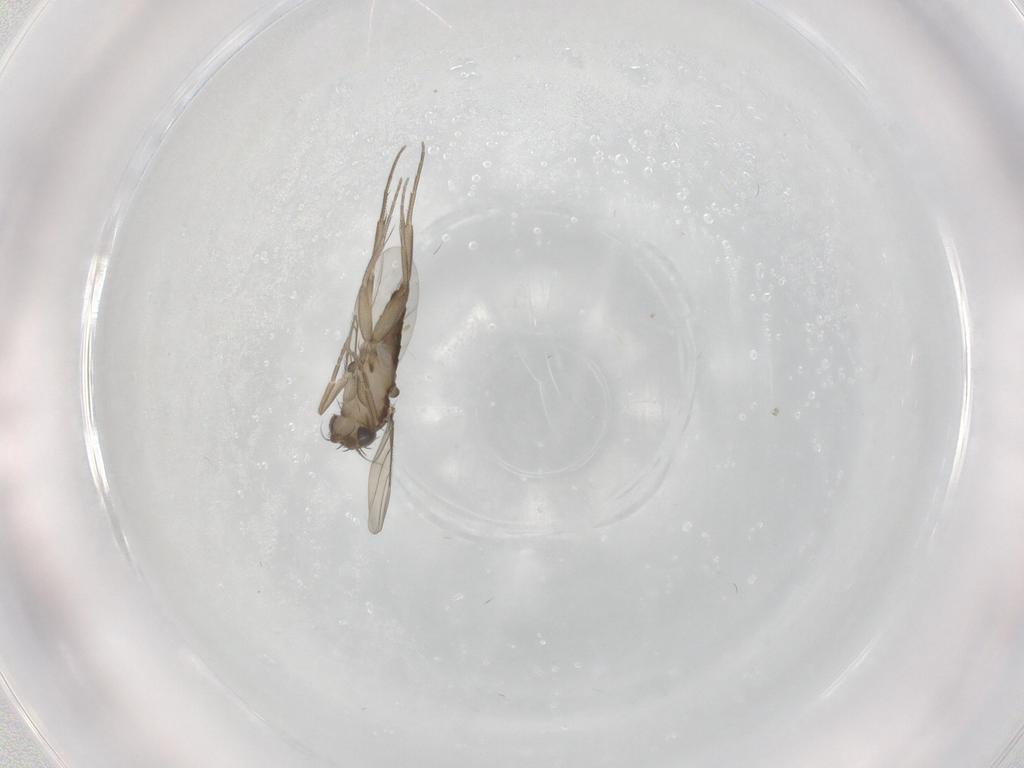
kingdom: Animalia
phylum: Arthropoda
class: Insecta
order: Diptera
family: Phoridae
